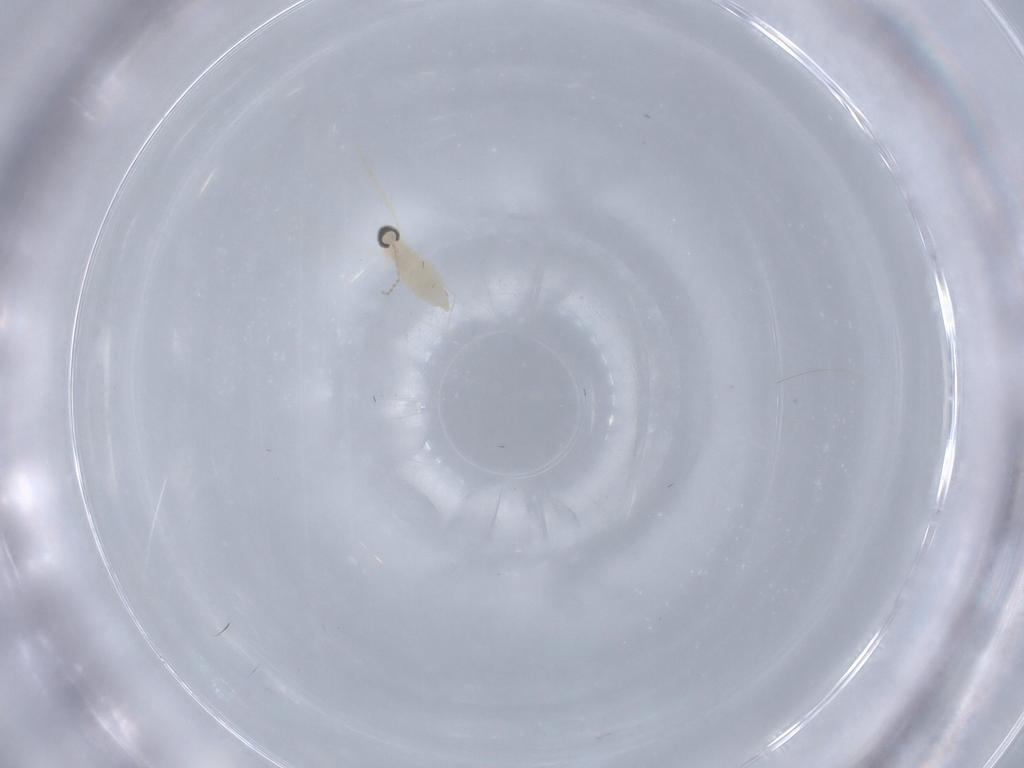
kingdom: Animalia
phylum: Arthropoda
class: Insecta
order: Diptera
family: Cecidomyiidae
